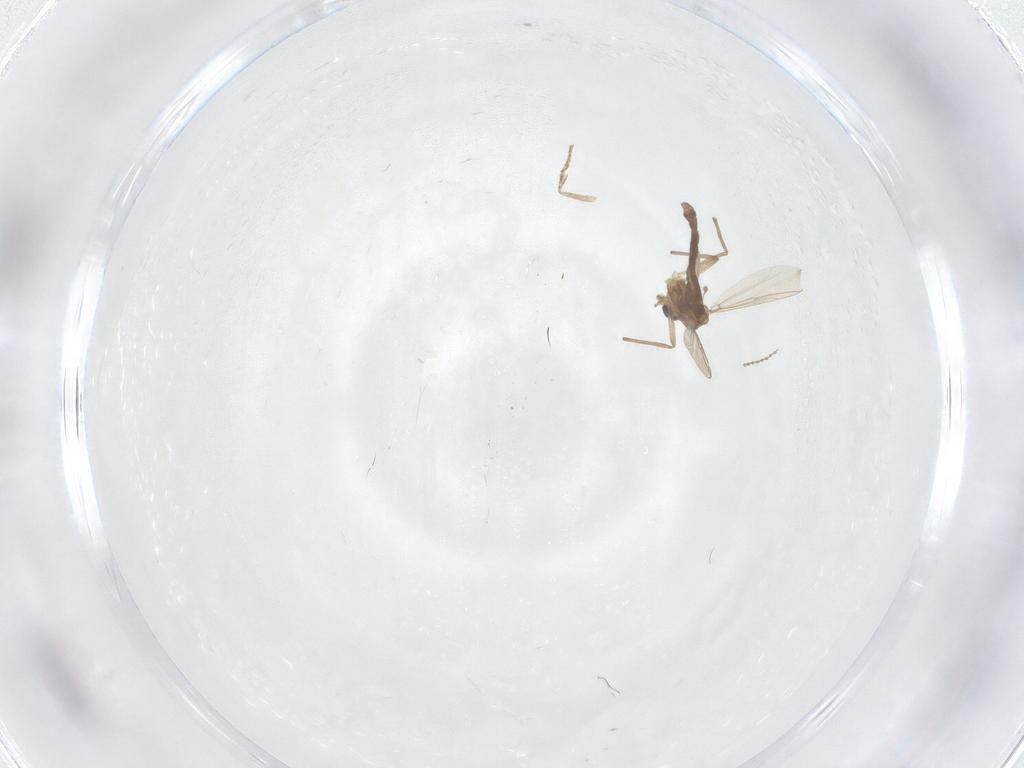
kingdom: Animalia
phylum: Arthropoda
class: Insecta
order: Diptera
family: Chironomidae
